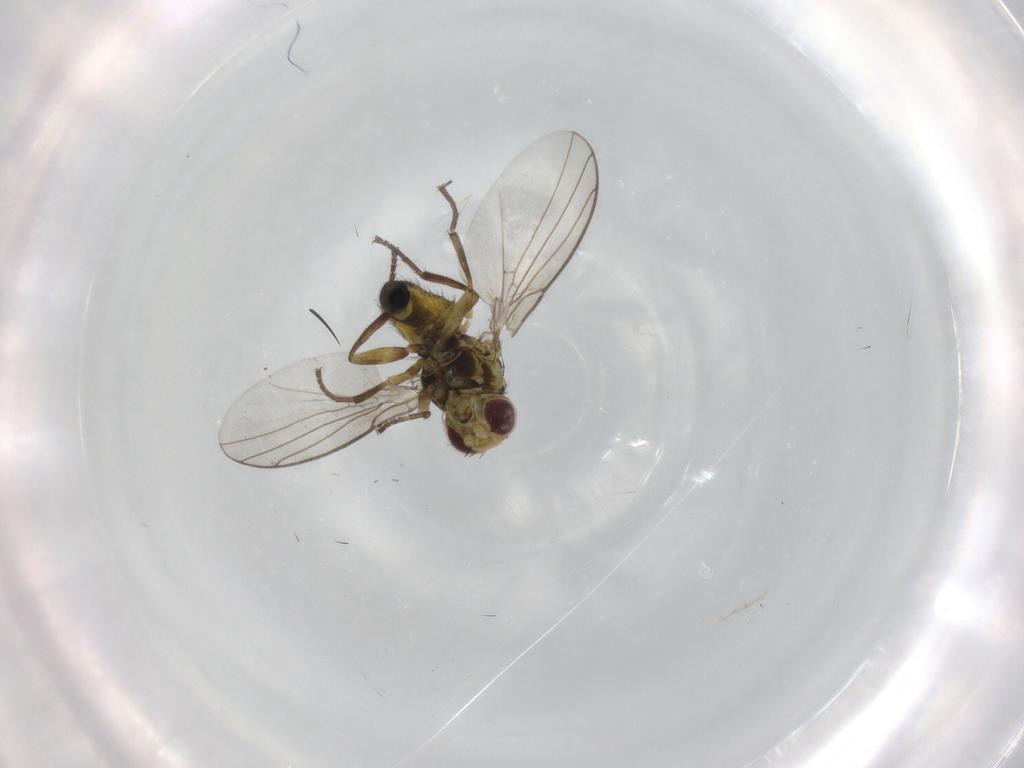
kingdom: Animalia
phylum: Arthropoda
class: Insecta
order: Diptera
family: Agromyzidae
